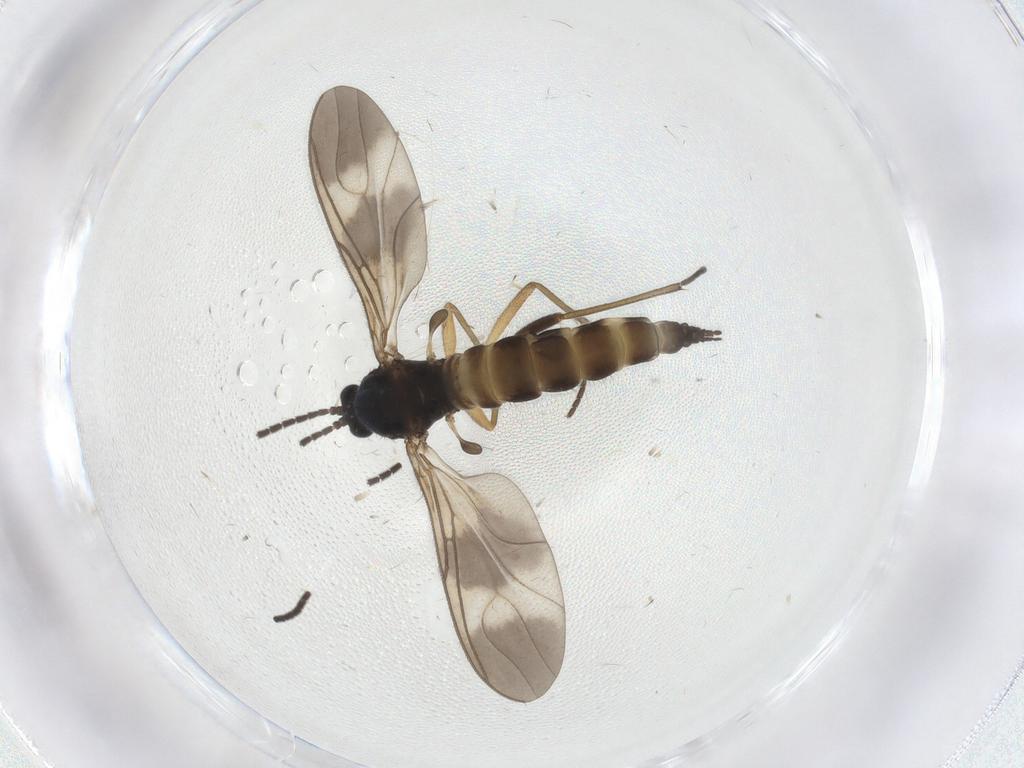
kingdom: Animalia
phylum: Arthropoda
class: Insecta
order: Diptera
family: Sciaridae
